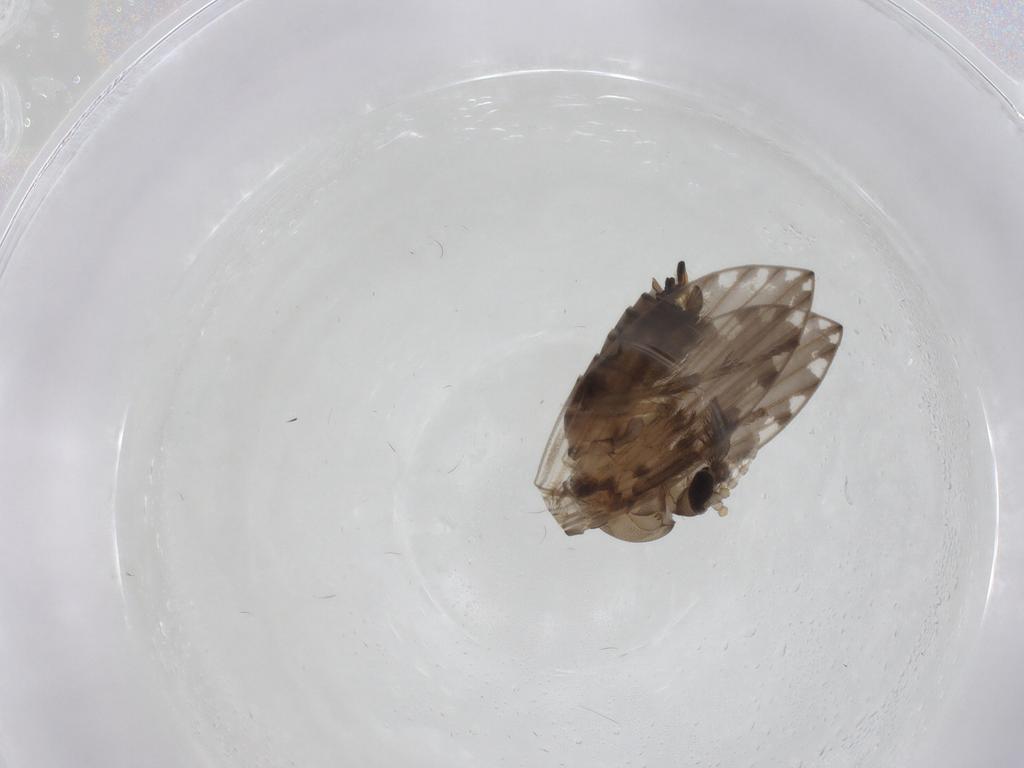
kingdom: Animalia
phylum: Arthropoda
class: Insecta
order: Diptera
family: Psychodidae
